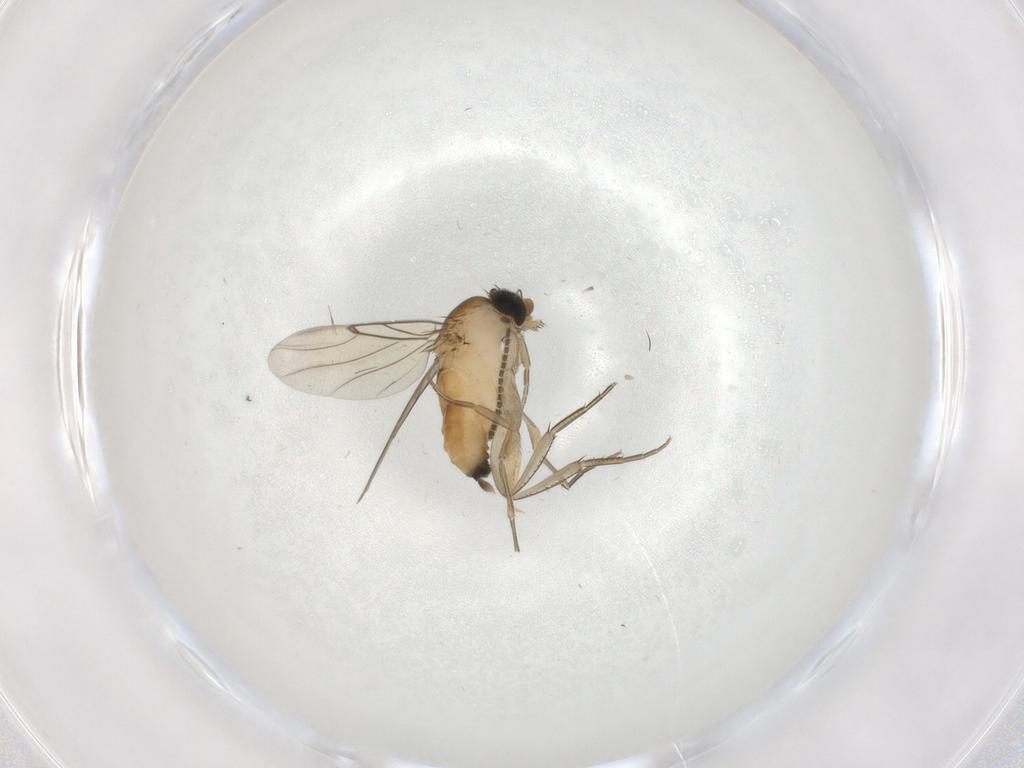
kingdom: Animalia
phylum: Arthropoda
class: Insecta
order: Diptera
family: Sciaridae
